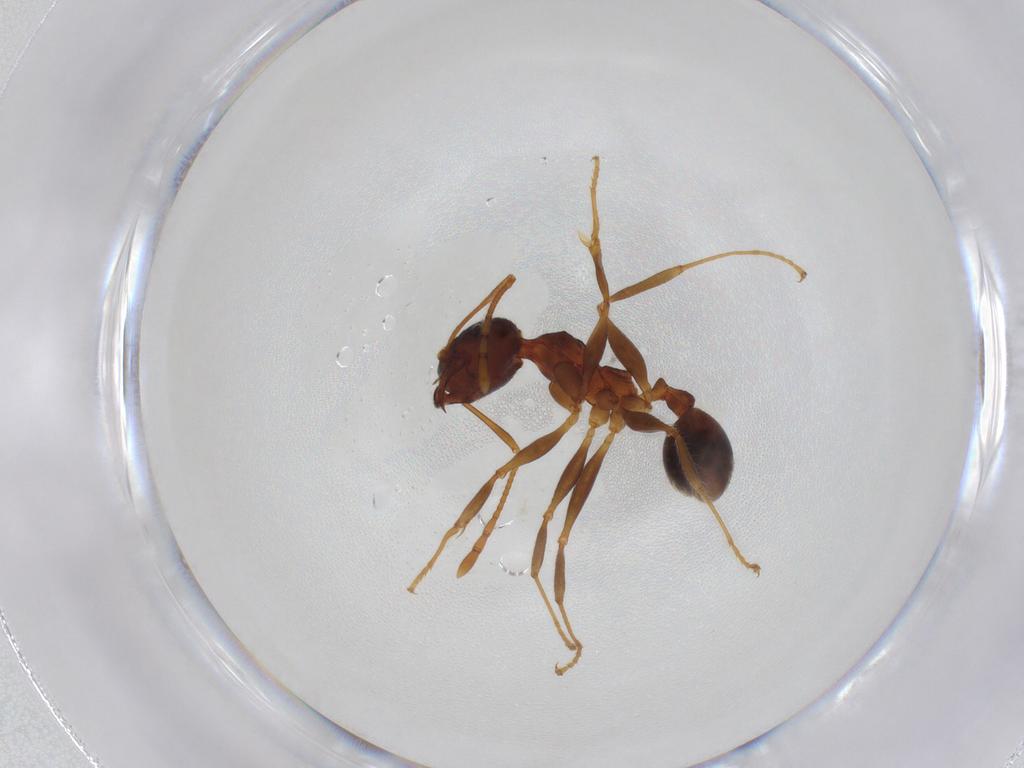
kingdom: Animalia
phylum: Arthropoda
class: Insecta
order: Hymenoptera
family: Formicidae
